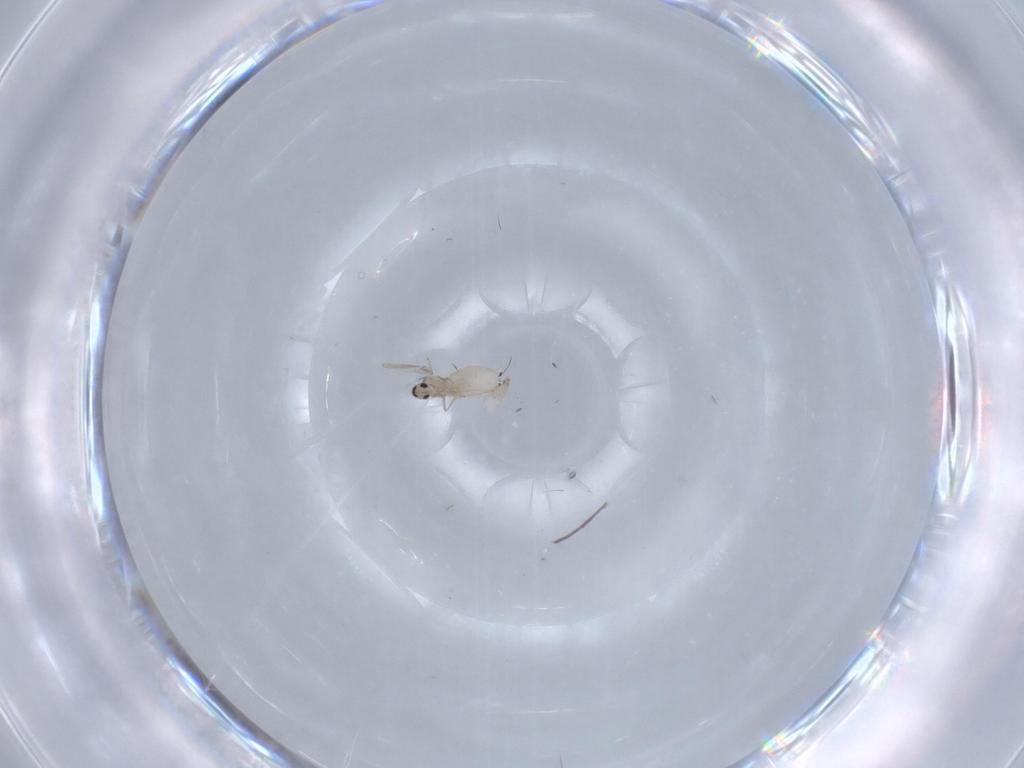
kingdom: Animalia
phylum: Arthropoda
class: Insecta
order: Diptera
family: Cecidomyiidae
